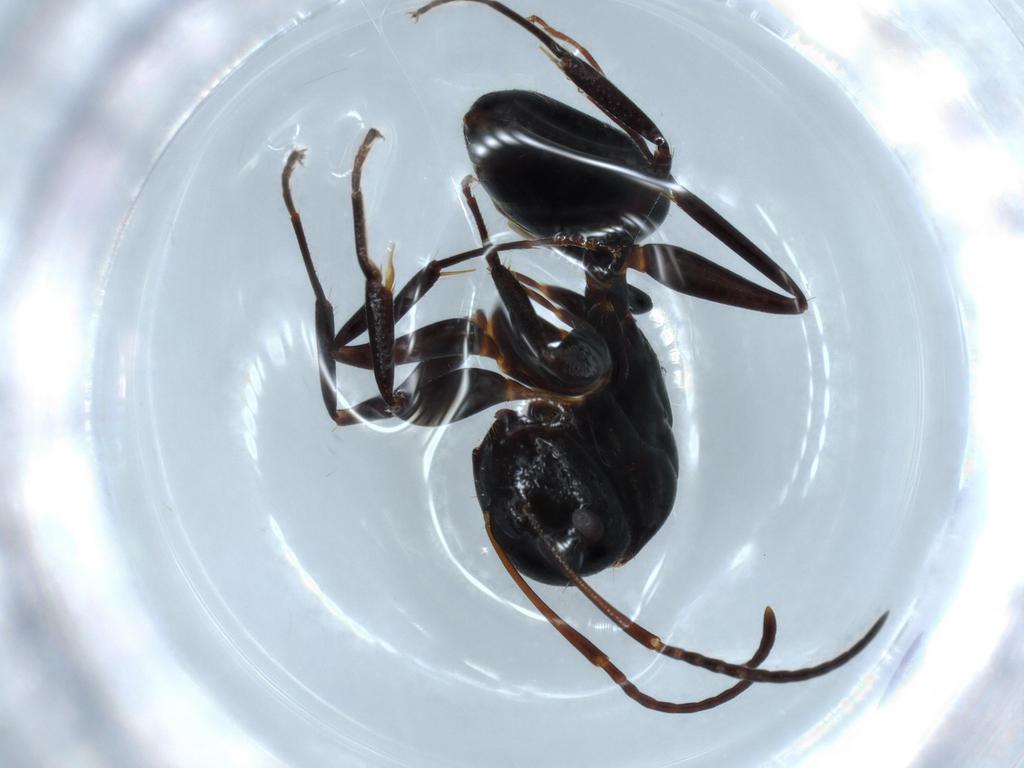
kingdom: Animalia
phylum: Arthropoda
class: Insecta
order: Hymenoptera
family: Formicidae
